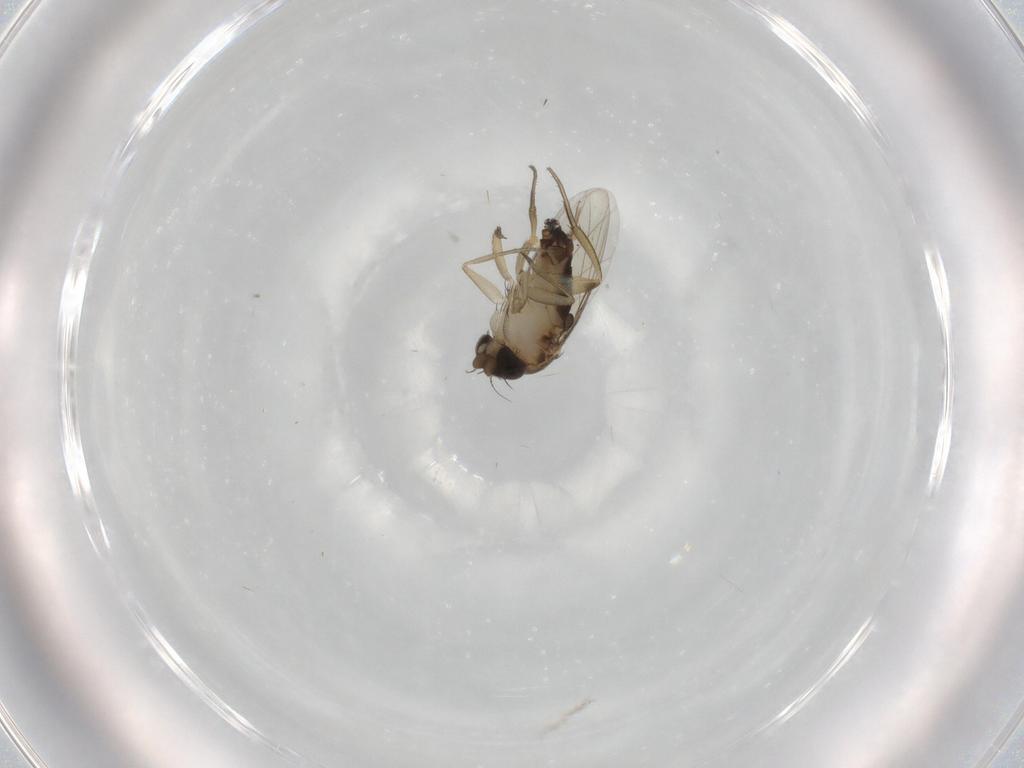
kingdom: Animalia
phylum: Arthropoda
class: Insecta
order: Diptera
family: Phoridae
